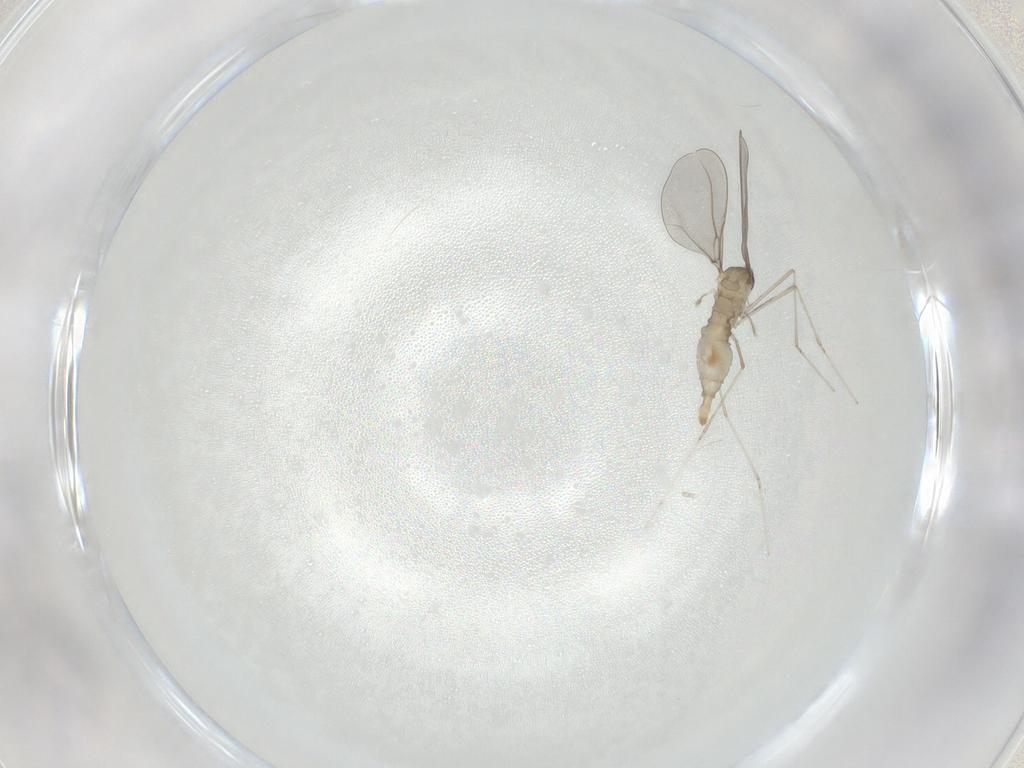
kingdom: Animalia
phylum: Arthropoda
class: Insecta
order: Diptera
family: Cecidomyiidae
